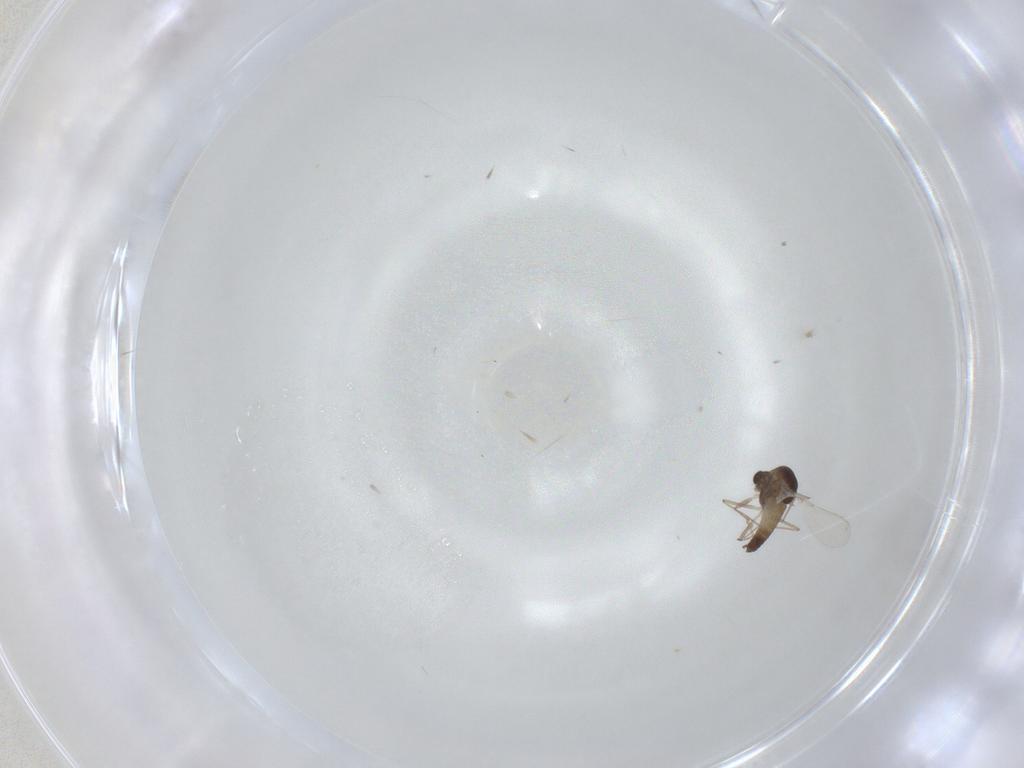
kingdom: Animalia
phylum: Arthropoda
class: Insecta
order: Diptera
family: Chironomidae
